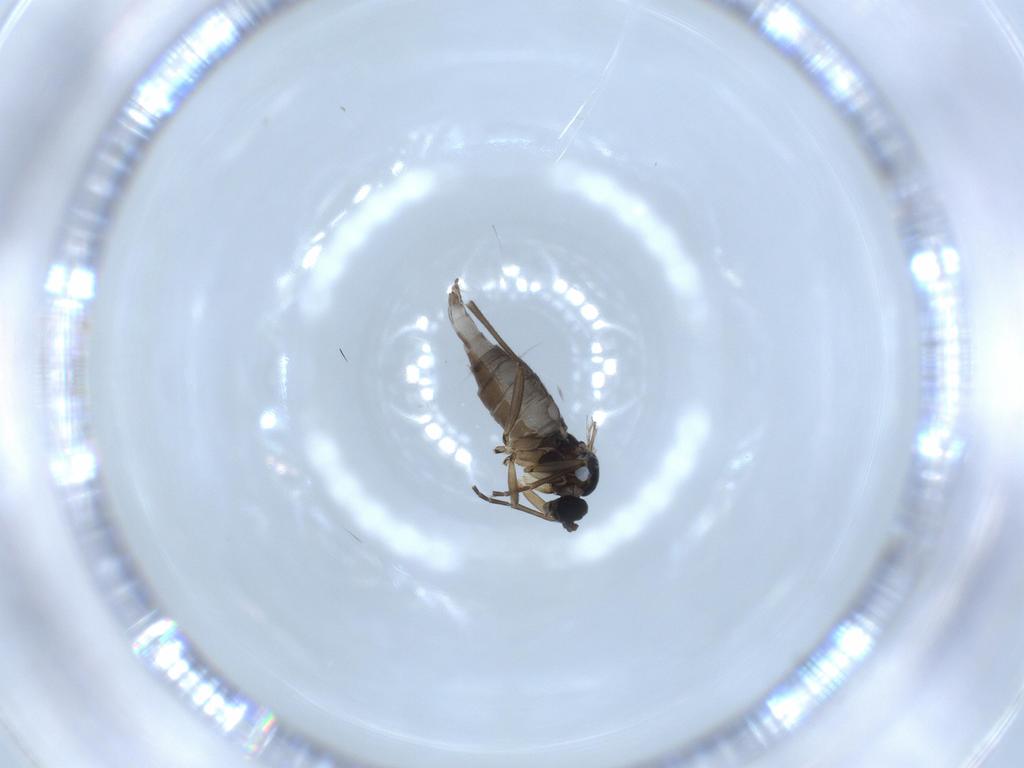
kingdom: Animalia
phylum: Arthropoda
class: Insecta
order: Diptera
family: Sciaridae
